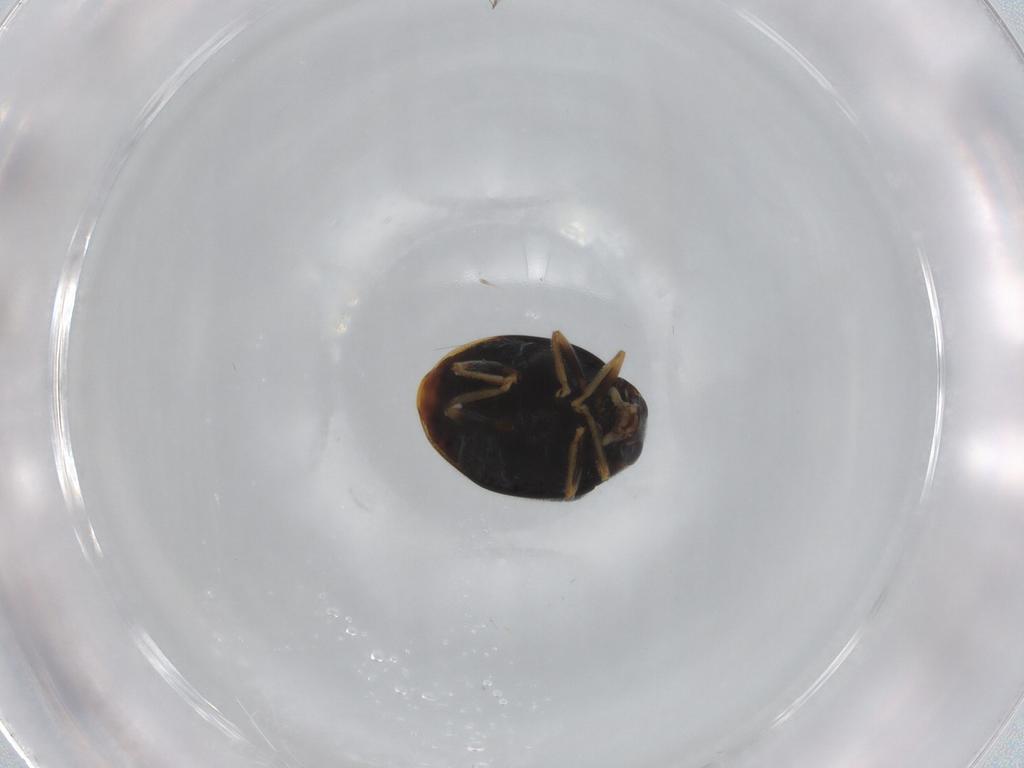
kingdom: Animalia
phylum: Arthropoda
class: Insecta
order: Coleoptera
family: Coccinellidae
